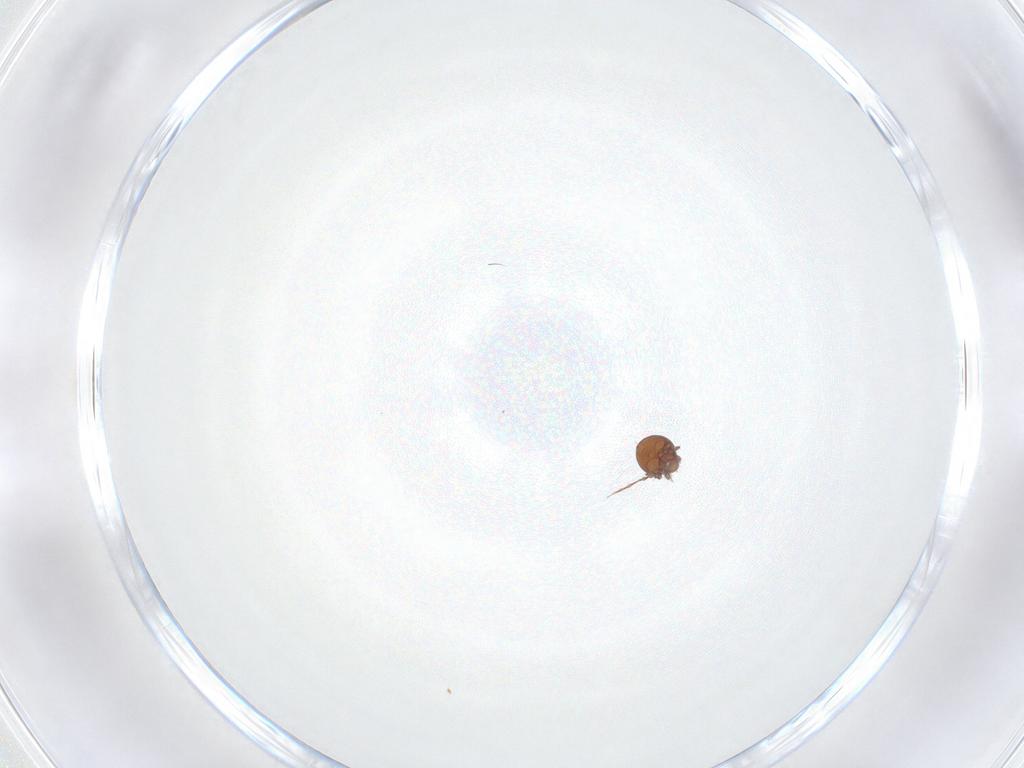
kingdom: Animalia
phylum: Arthropoda
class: Arachnida
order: Sarcoptiformes
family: Oppiidae
